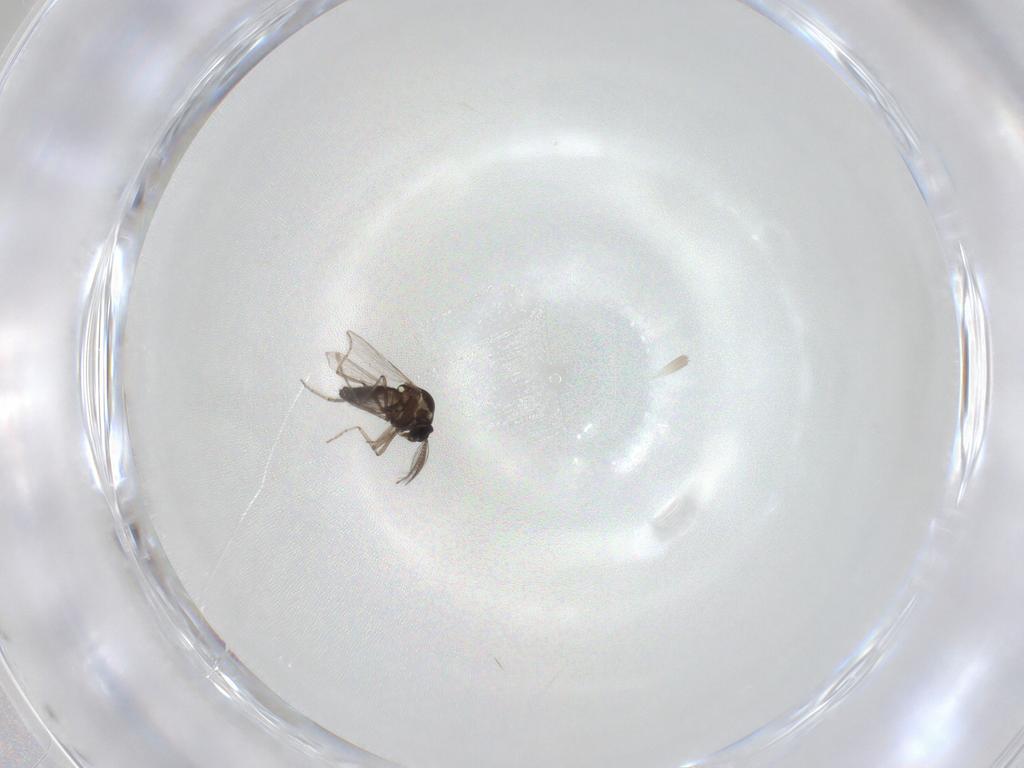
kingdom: Animalia
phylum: Arthropoda
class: Insecta
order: Diptera
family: Ceratopogonidae
